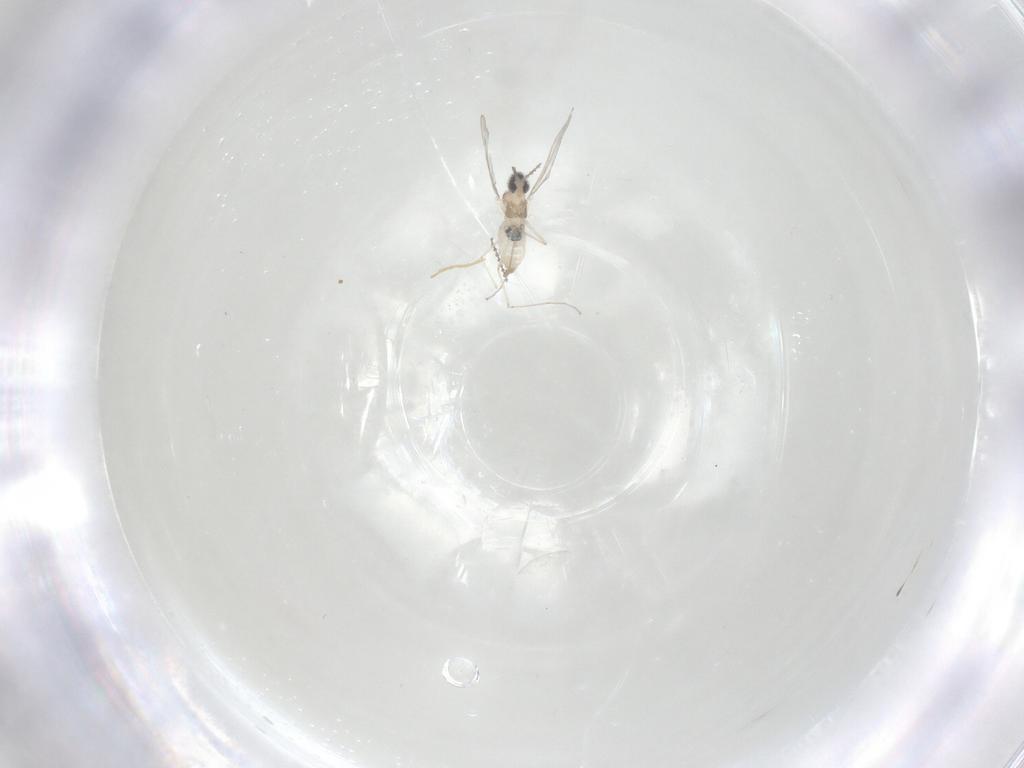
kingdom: Animalia
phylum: Arthropoda
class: Insecta
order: Diptera
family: Cecidomyiidae
